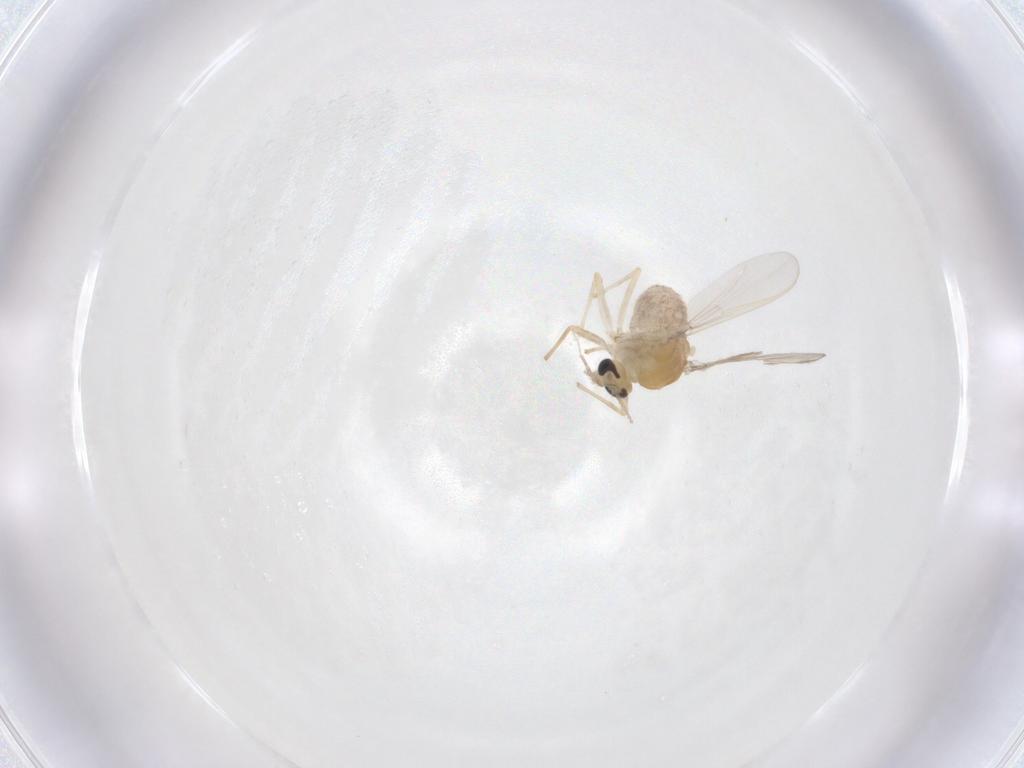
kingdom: Animalia
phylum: Arthropoda
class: Insecta
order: Diptera
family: Chironomidae
